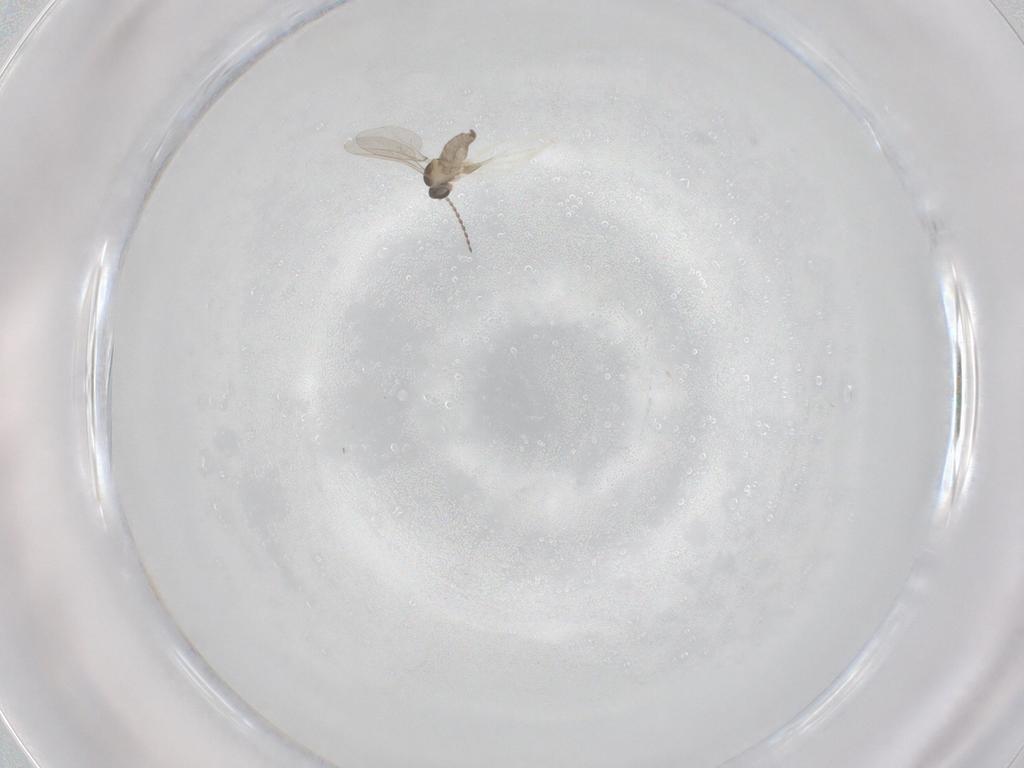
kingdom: Animalia
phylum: Arthropoda
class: Insecta
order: Diptera
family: Cecidomyiidae
